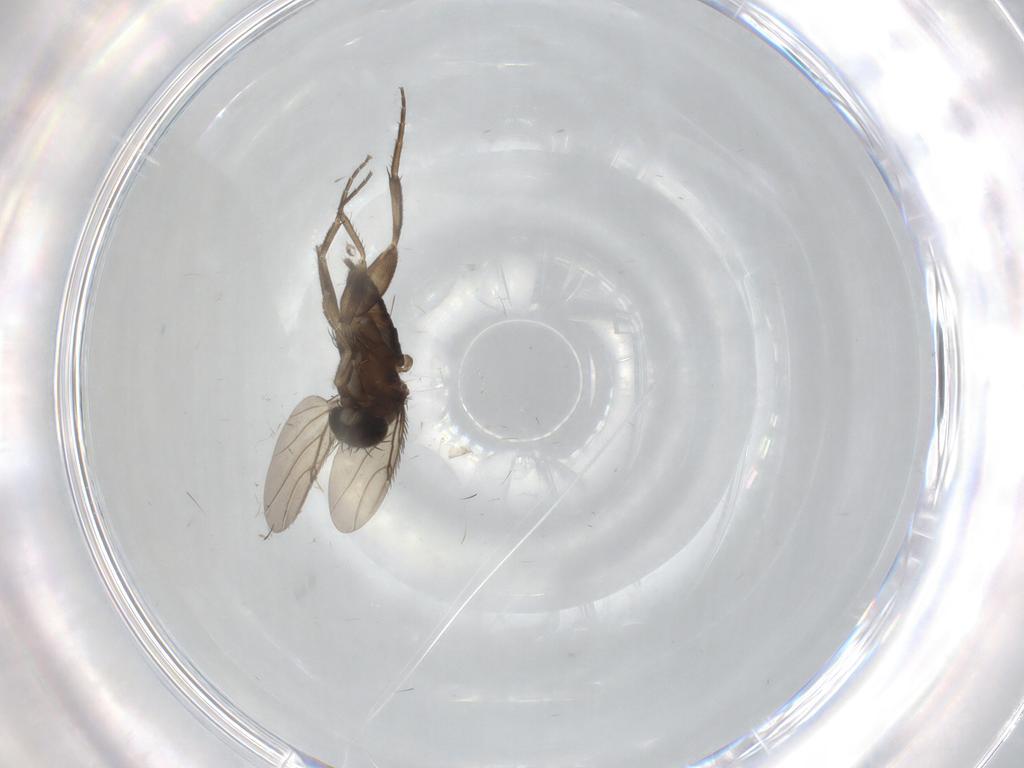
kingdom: Animalia
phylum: Arthropoda
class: Insecta
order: Diptera
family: Phoridae
